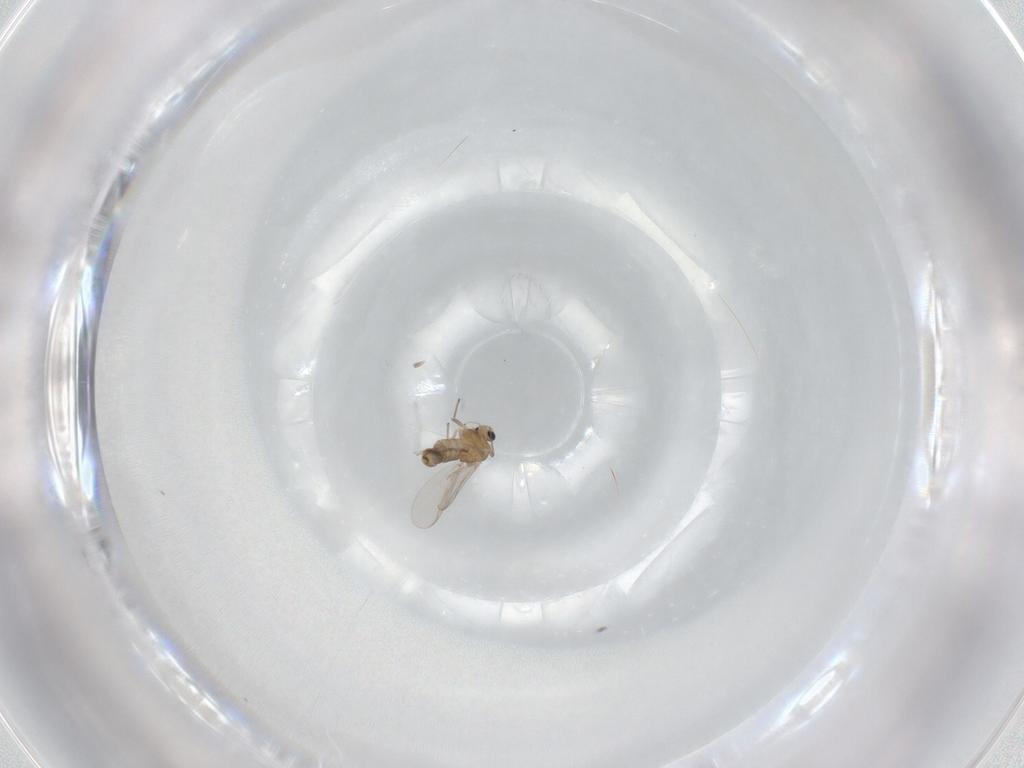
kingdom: Animalia
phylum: Arthropoda
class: Insecta
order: Diptera
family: Chironomidae
